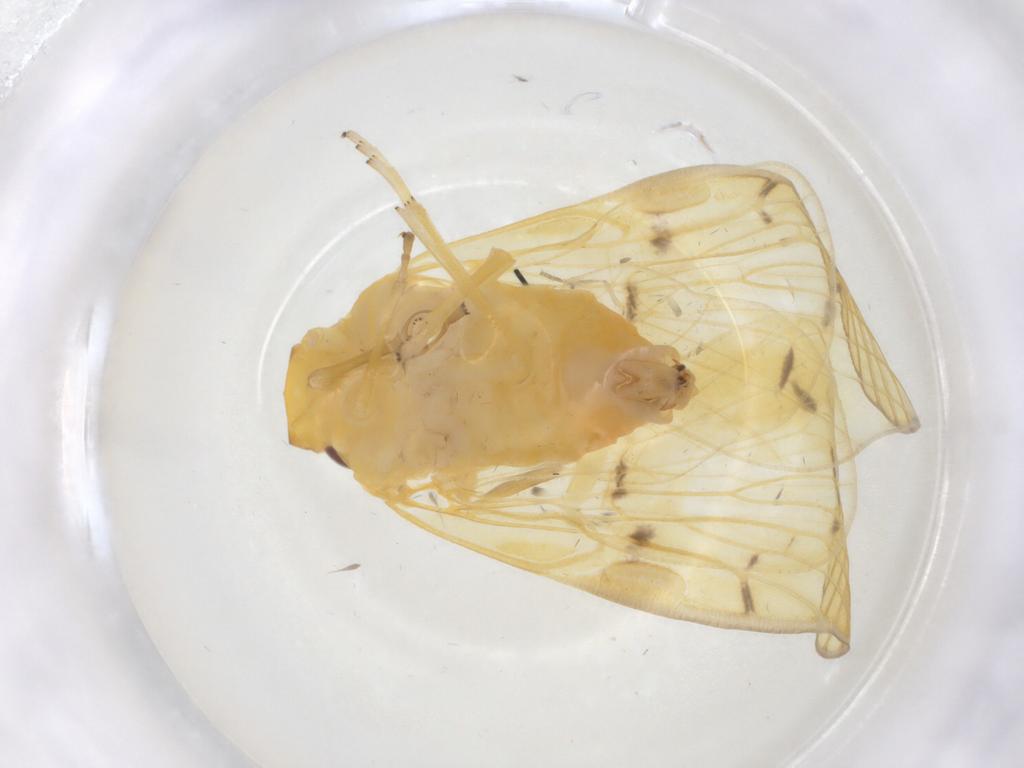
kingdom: Animalia
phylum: Arthropoda
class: Insecta
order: Hemiptera
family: Cixiidae
